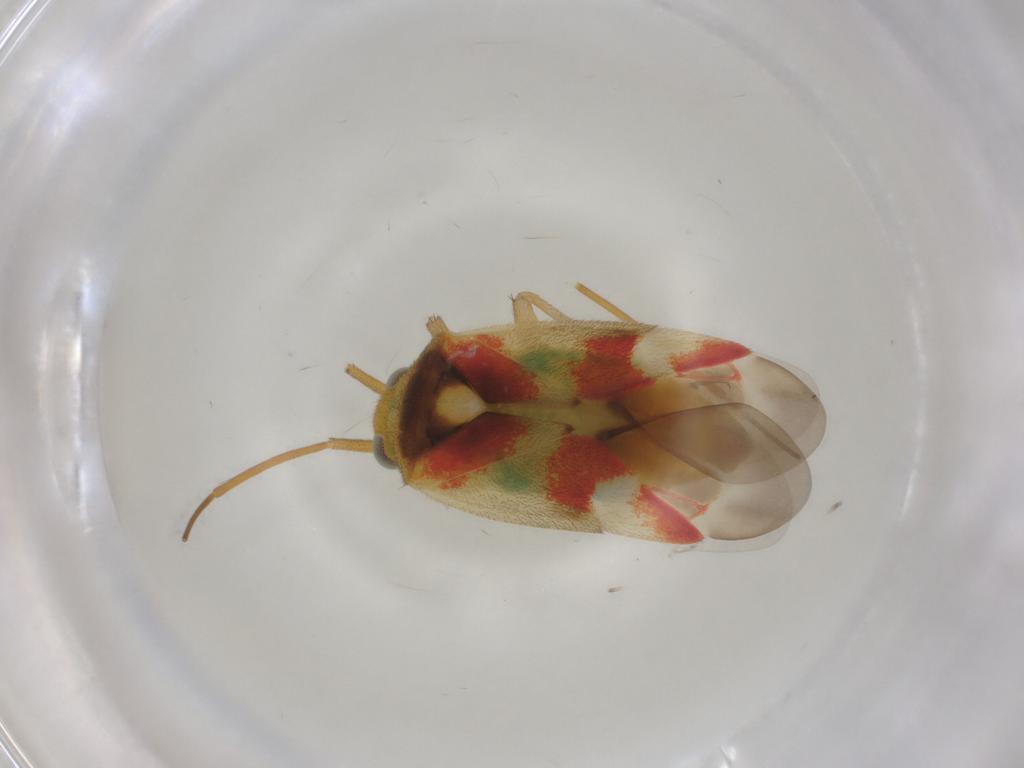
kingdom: Animalia
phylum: Arthropoda
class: Insecta
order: Hemiptera
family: Miridae
